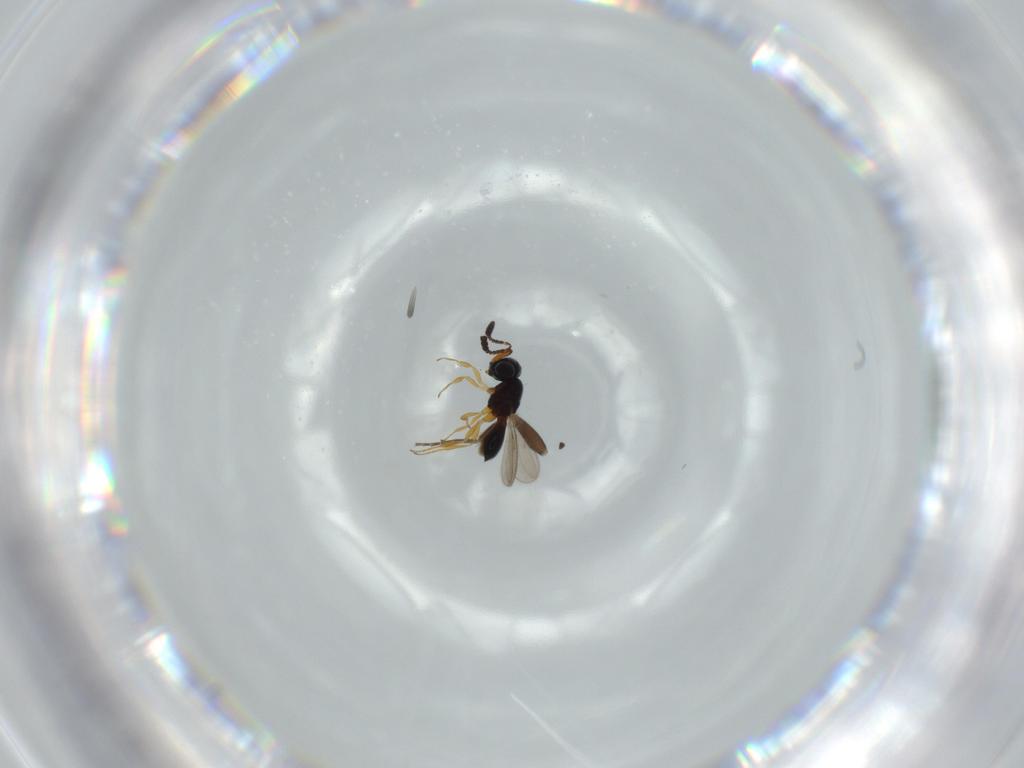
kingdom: Animalia
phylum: Arthropoda
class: Insecta
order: Hymenoptera
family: Scelionidae
